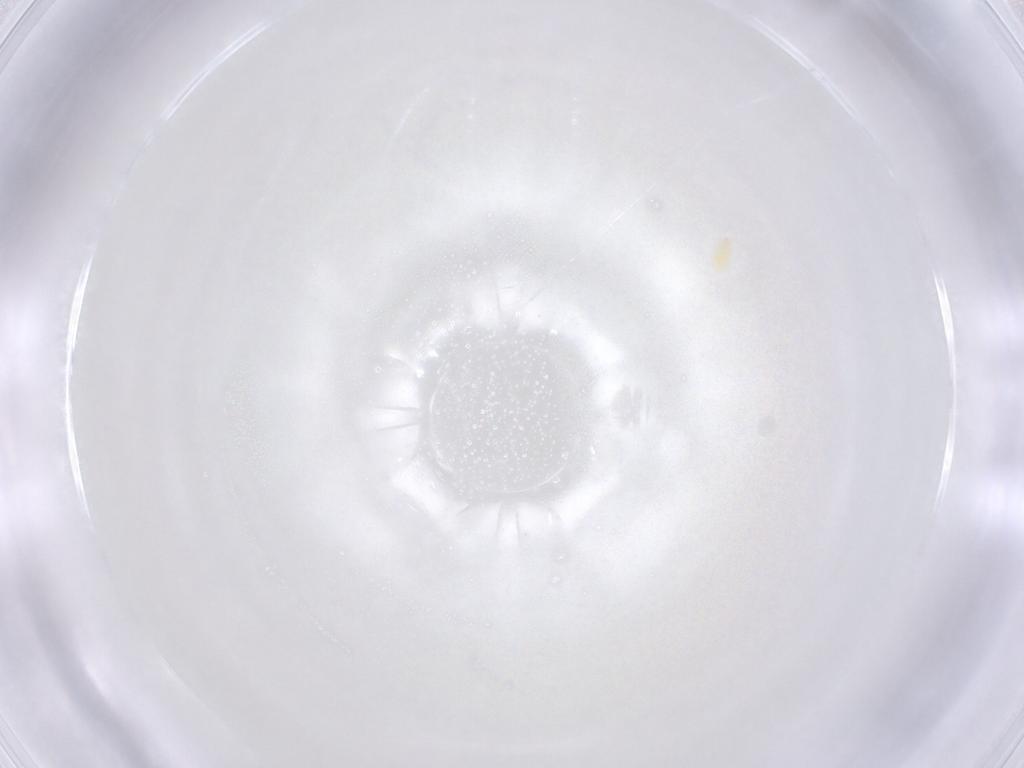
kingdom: Animalia
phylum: Arthropoda
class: Arachnida
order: Trombidiformes
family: Tetranychidae
